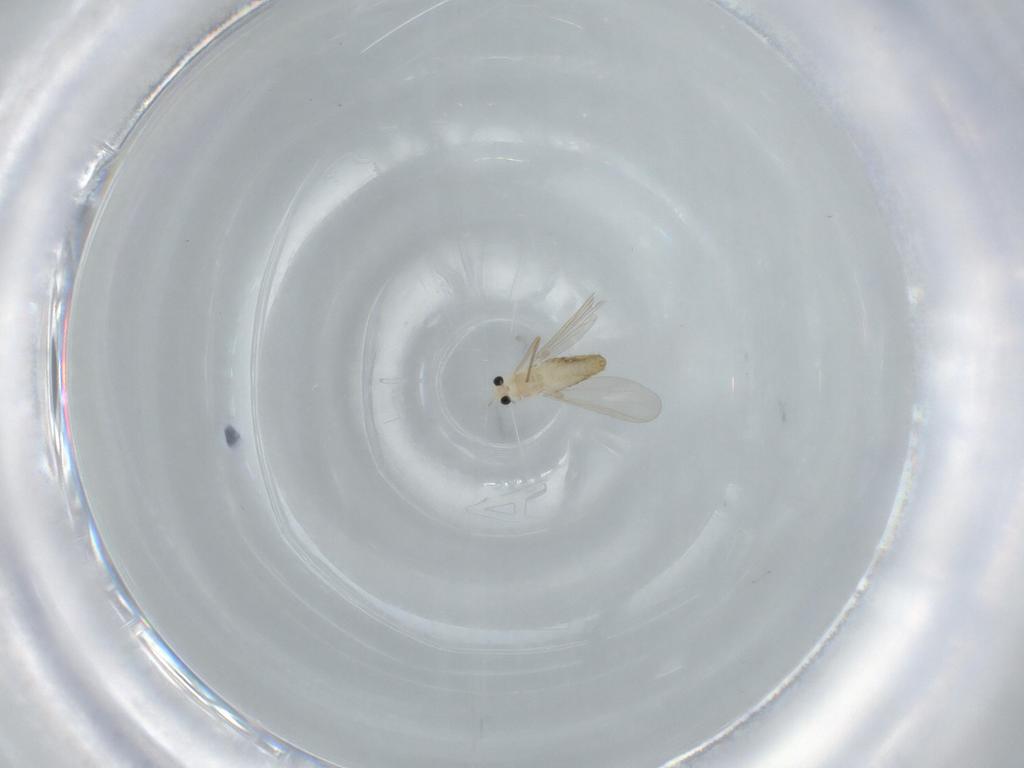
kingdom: Animalia
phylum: Arthropoda
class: Insecta
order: Diptera
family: Chironomidae
